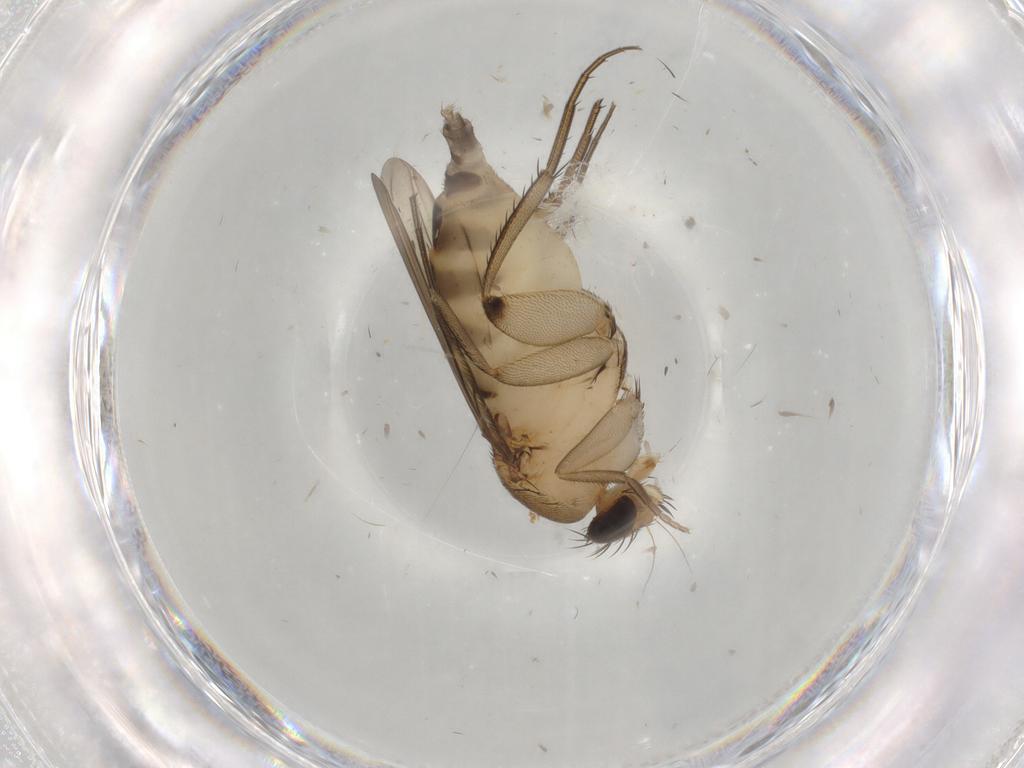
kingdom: Animalia
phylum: Arthropoda
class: Insecta
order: Diptera
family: Phoridae
